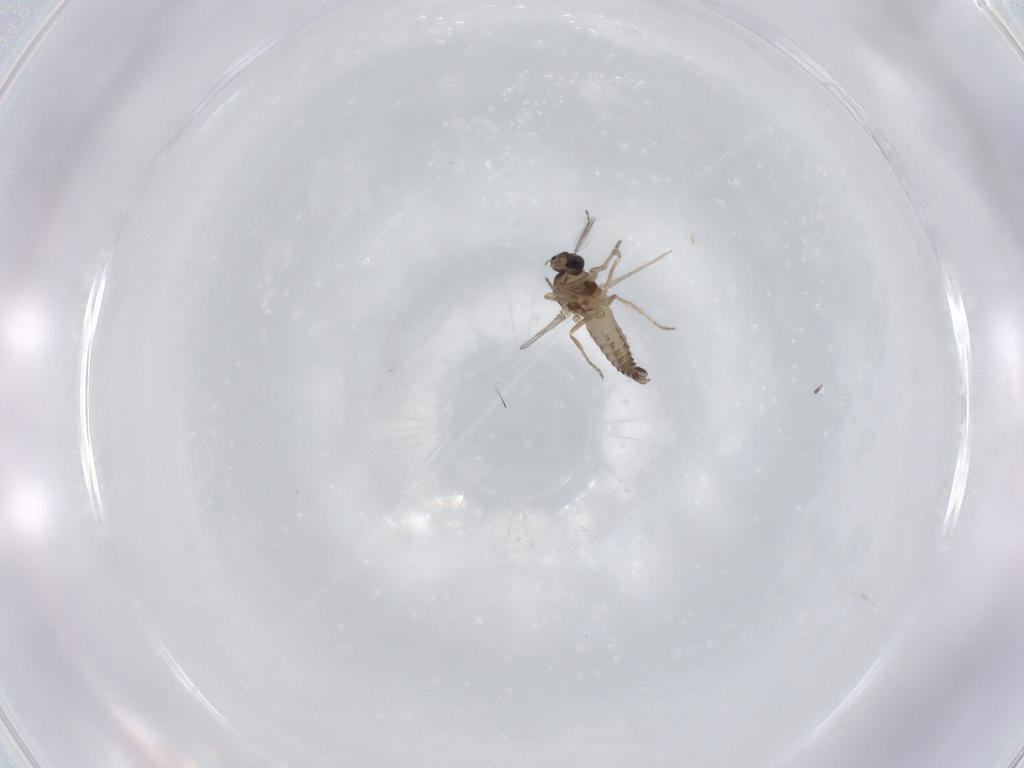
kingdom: Animalia
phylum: Arthropoda
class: Insecta
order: Diptera
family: Ceratopogonidae
